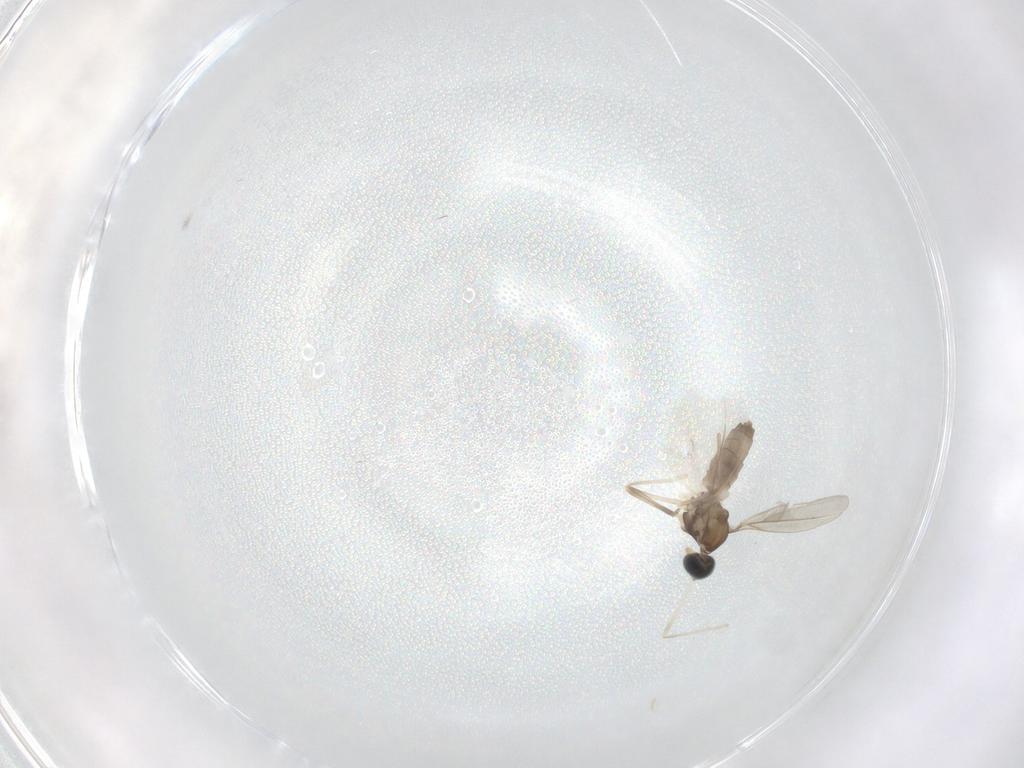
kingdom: Animalia
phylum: Arthropoda
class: Insecta
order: Diptera
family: Cecidomyiidae
